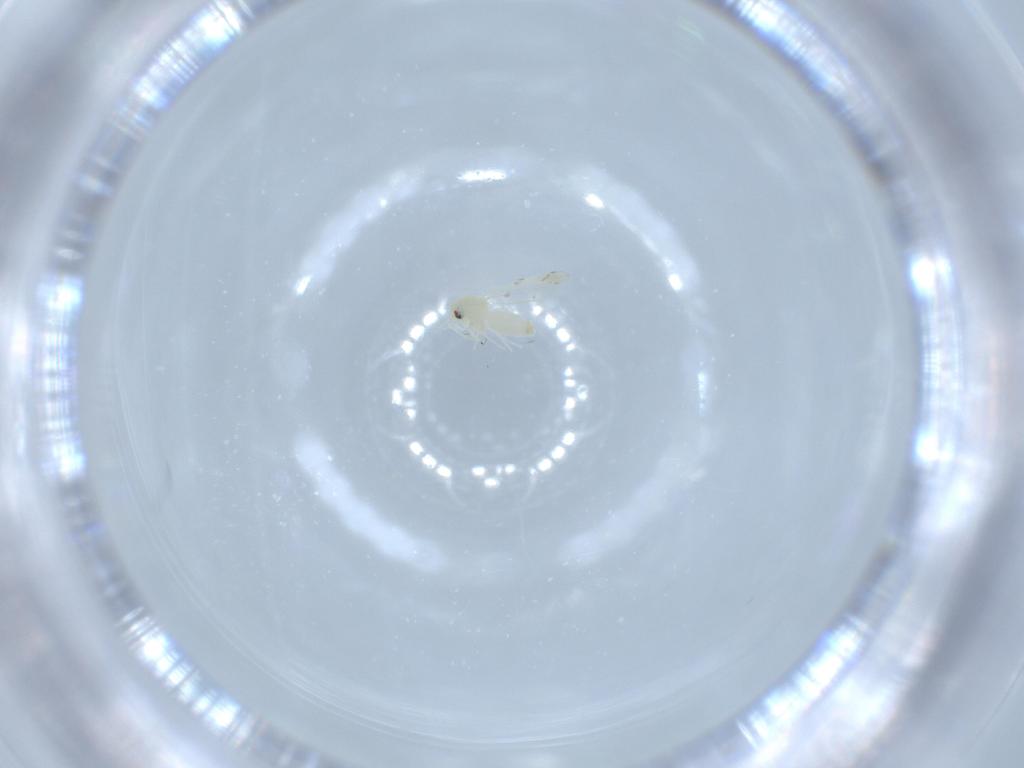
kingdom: Animalia
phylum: Arthropoda
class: Insecta
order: Hemiptera
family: Aleyrodidae
